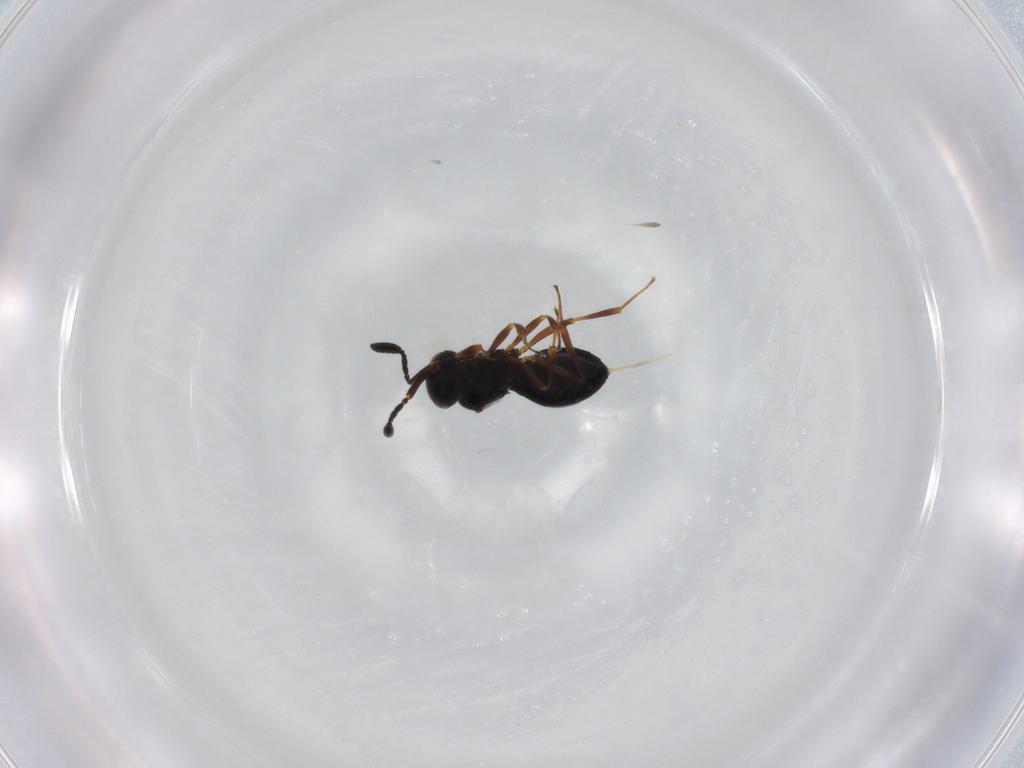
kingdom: Animalia
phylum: Arthropoda
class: Insecta
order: Hymenoptera
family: Scelionidae
